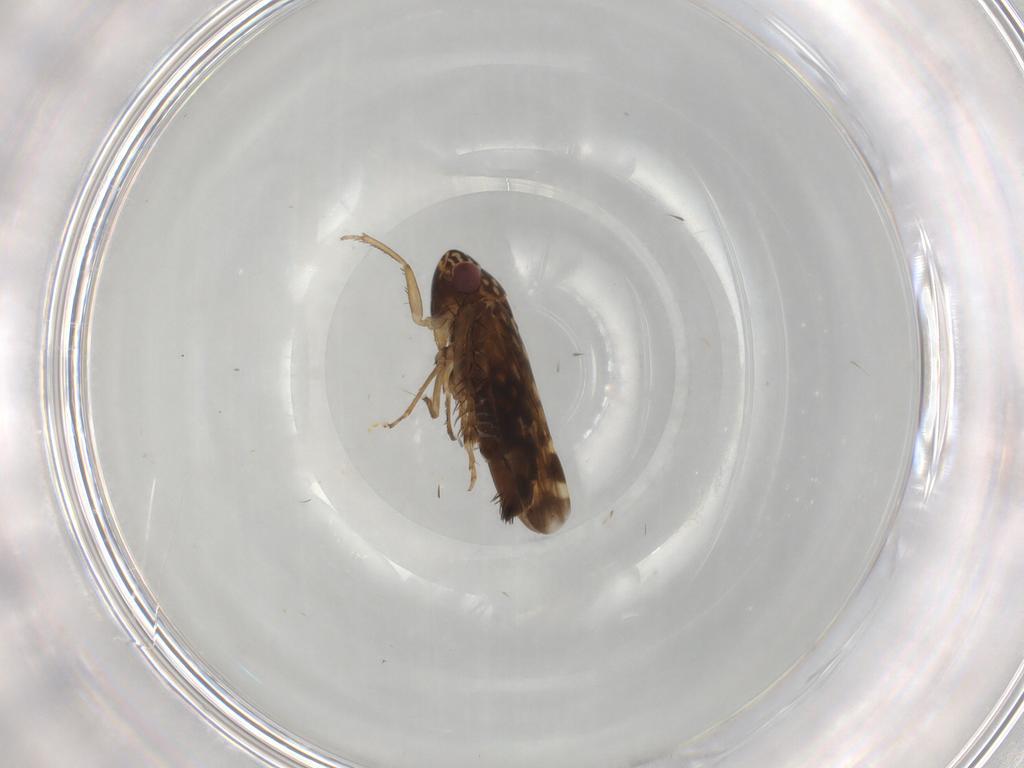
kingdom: Animalia
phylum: Arthropoda
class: Insecta
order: Hemiptera
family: Cicadellidae
